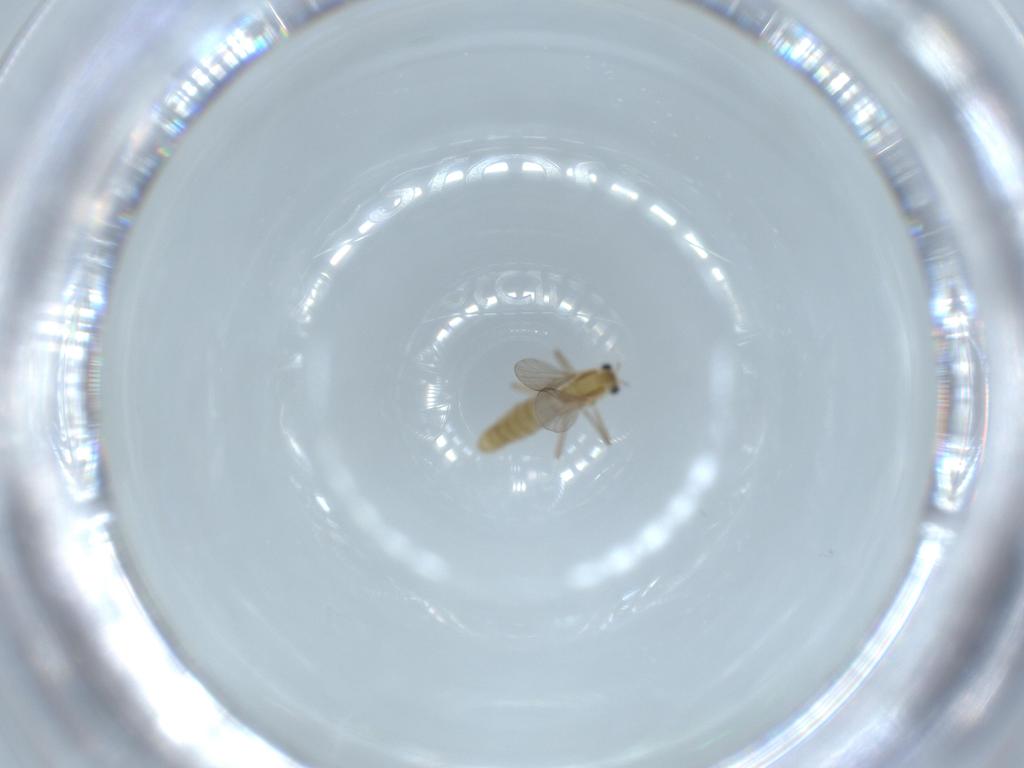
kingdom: Animalia
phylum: Arthropoda
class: Insecta
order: Diptera
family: Chironomidae
